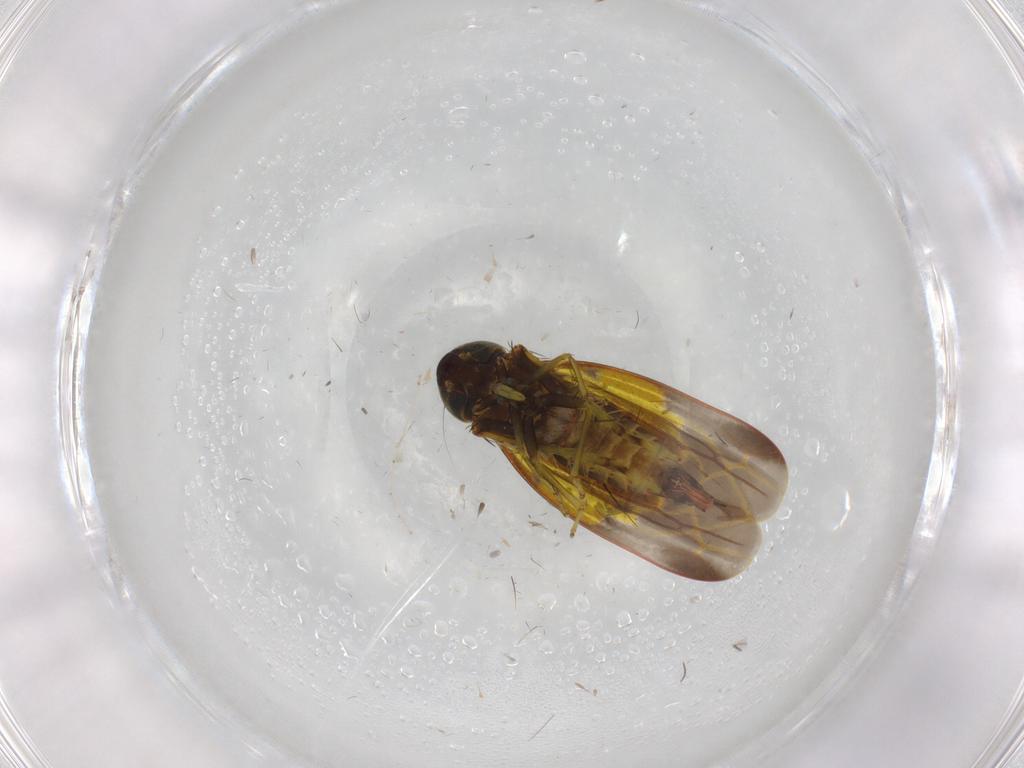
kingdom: Animalia
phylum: Arthropoda
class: Insecta
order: Hemiptera
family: Cicadellidae
